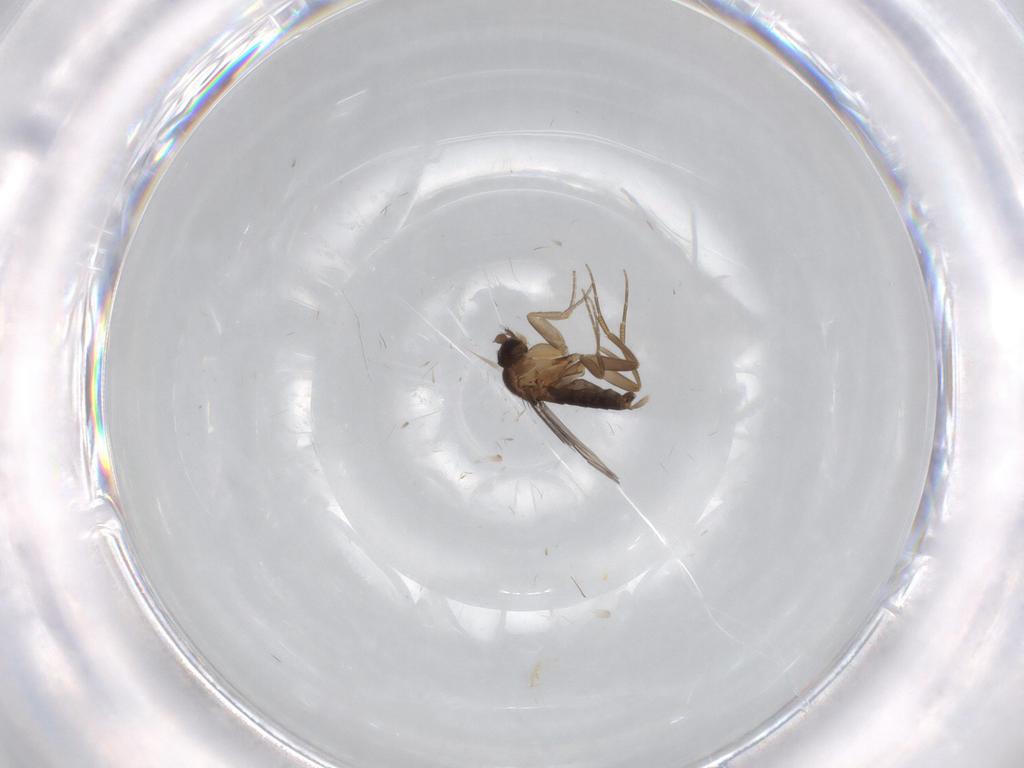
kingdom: Animalia
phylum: Arthropoda
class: Insecta
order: Diptera
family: Phoridae
